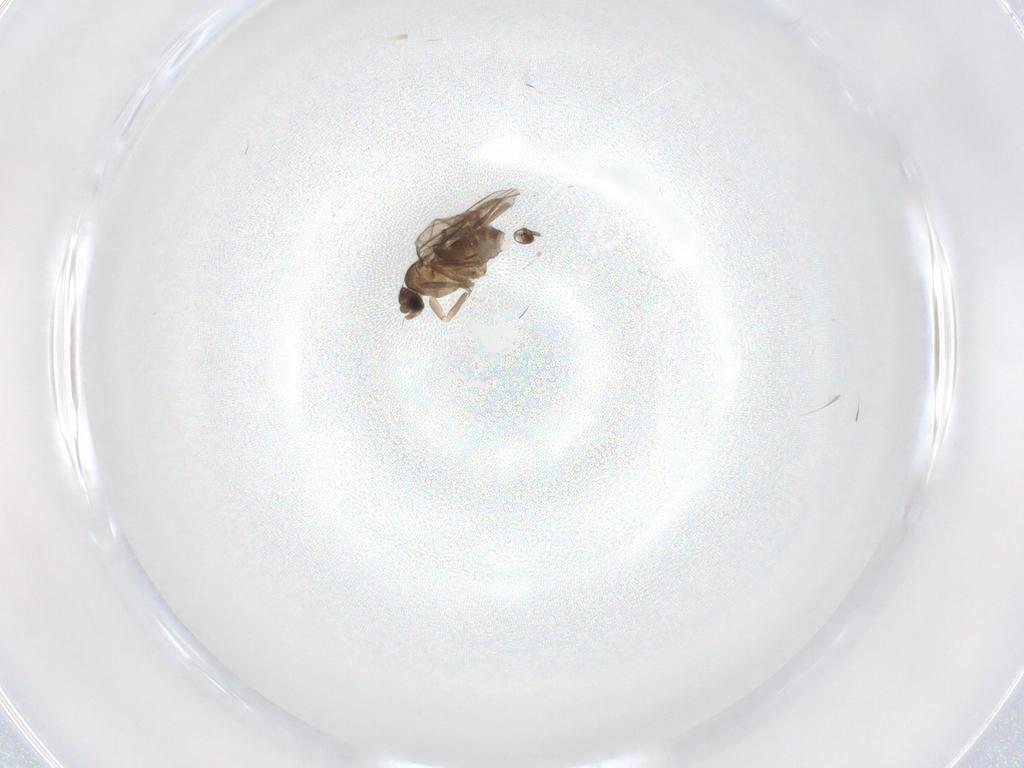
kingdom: Animalia
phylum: Arthropoda
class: Insecta
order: Diptera
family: Cecidomyiidae
